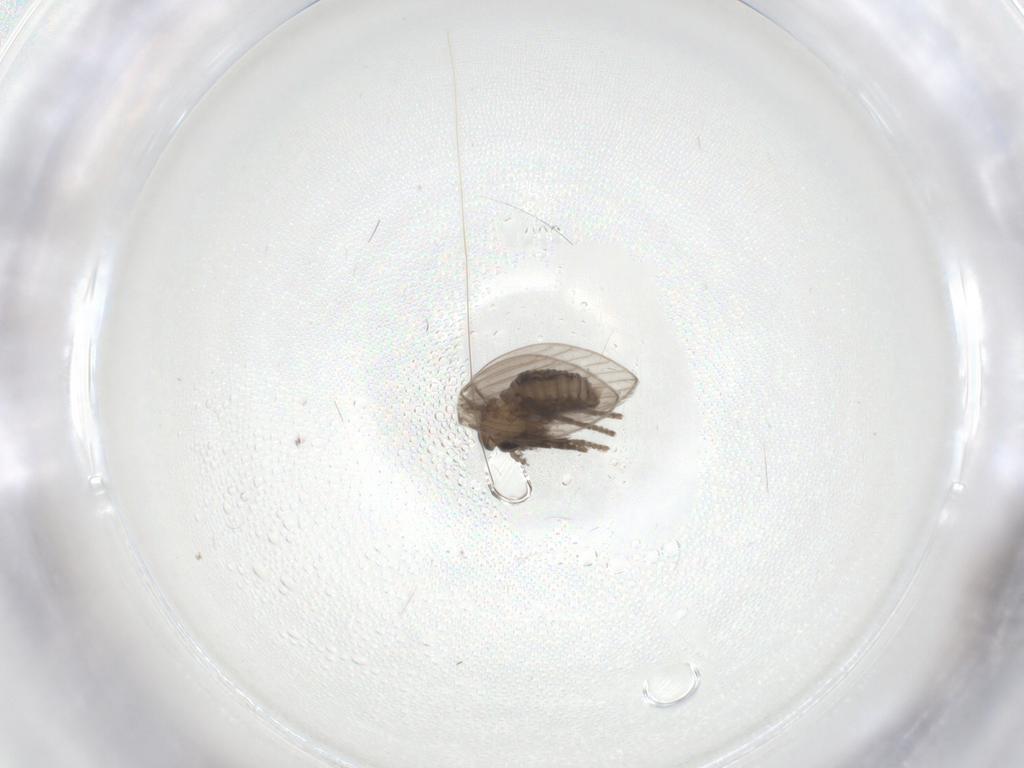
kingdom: Animalia
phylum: Arthropoda
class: Insecta
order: Diptera
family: Psychodidae
